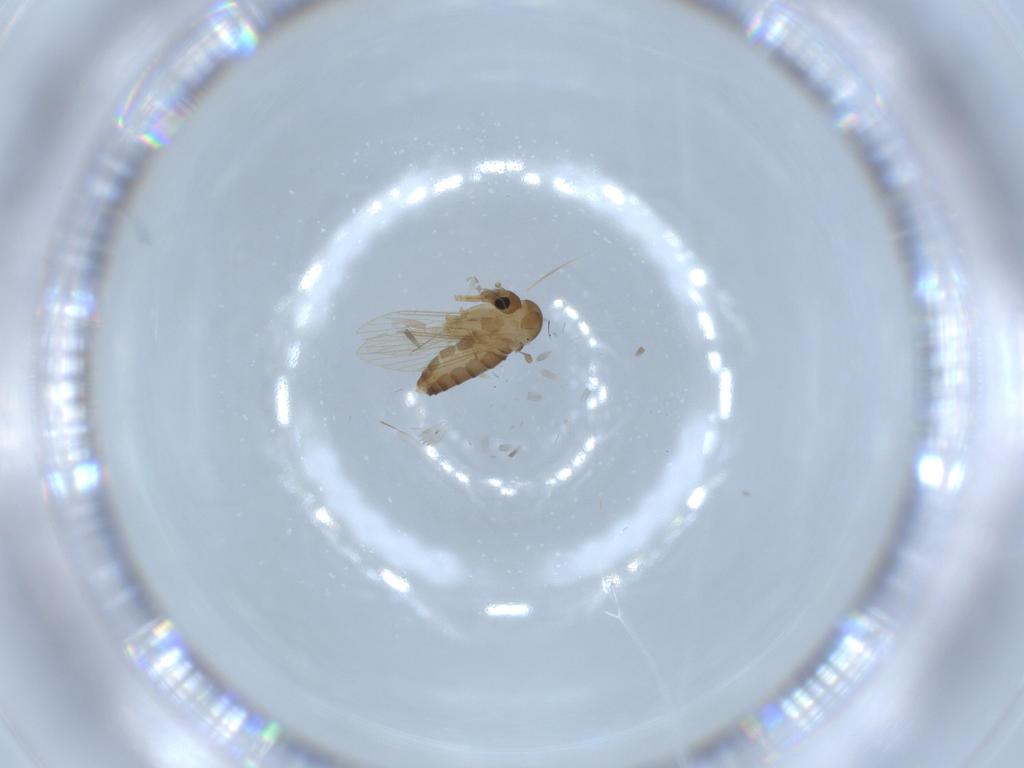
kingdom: Animalia
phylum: Arthropoda
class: Insecta
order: Diptera
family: Psychodidae
